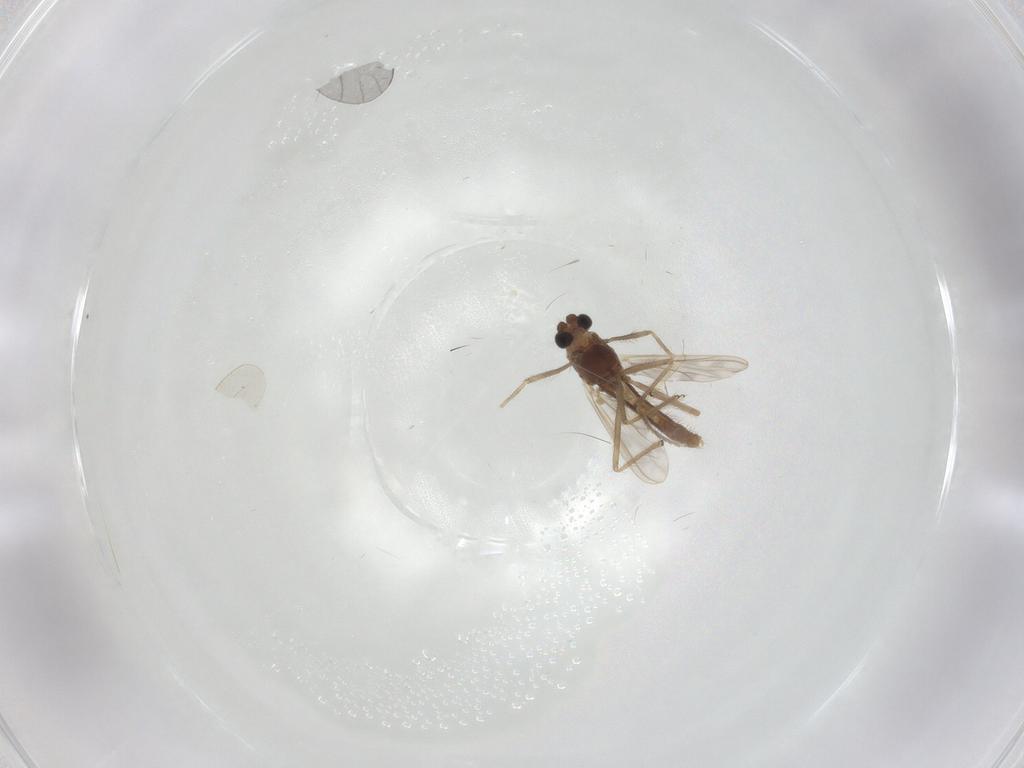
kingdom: Animalia
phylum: Arthropoda
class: Insecta
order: Diptera
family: Chironomidae
